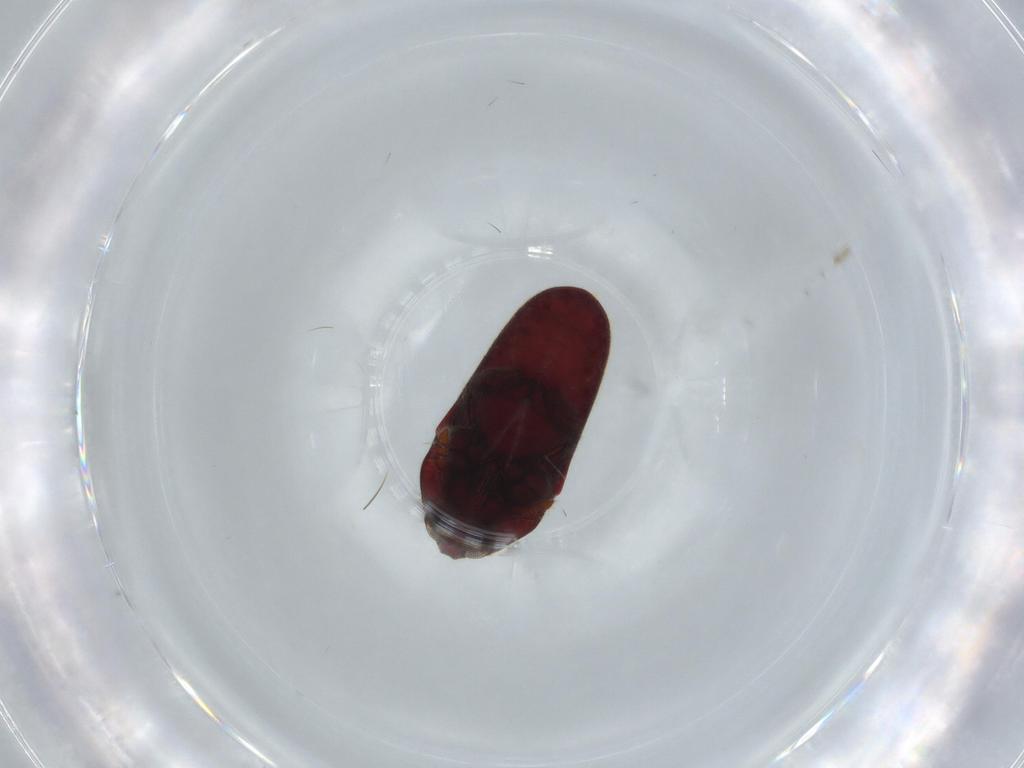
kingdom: Animalia
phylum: Arthropoda
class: Insecta
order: Coleoptera
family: Throscidae
